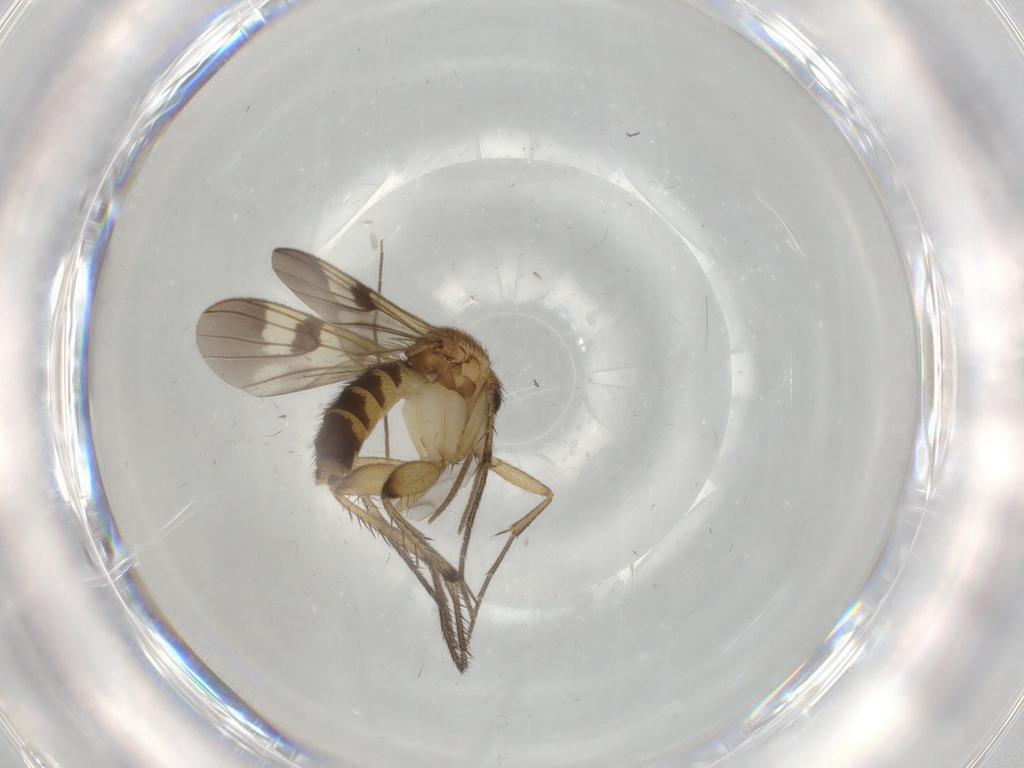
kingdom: Animalia
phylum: Arthropoda
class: Insecta
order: Diptera
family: Phoridae
